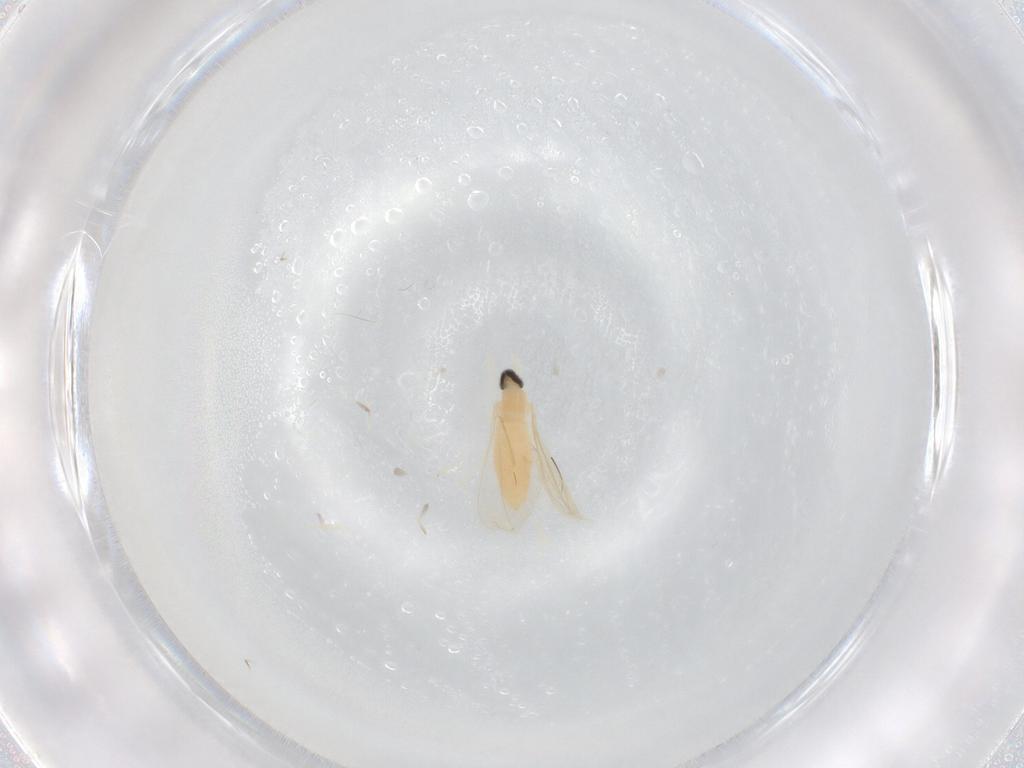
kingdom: Animalia
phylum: Arthropoda
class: Insecta
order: Diptera
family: Cecidomyiidae
